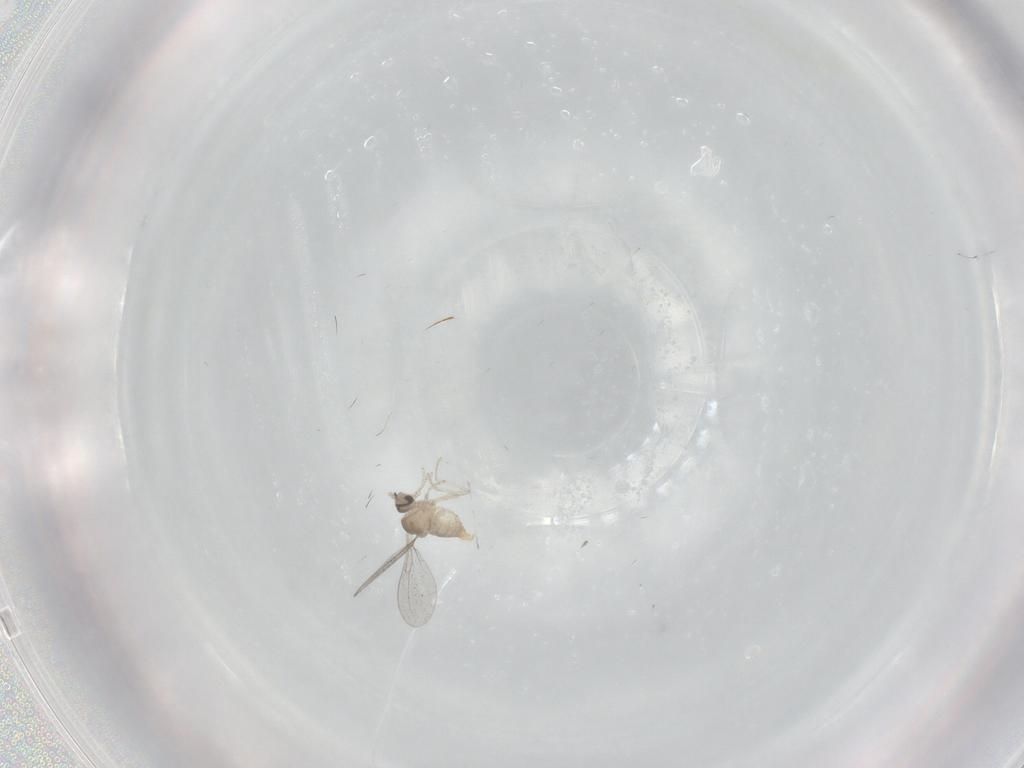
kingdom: Animalia
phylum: Arthropoda
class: Insecta
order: Diptera
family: Cecidomyiidae
